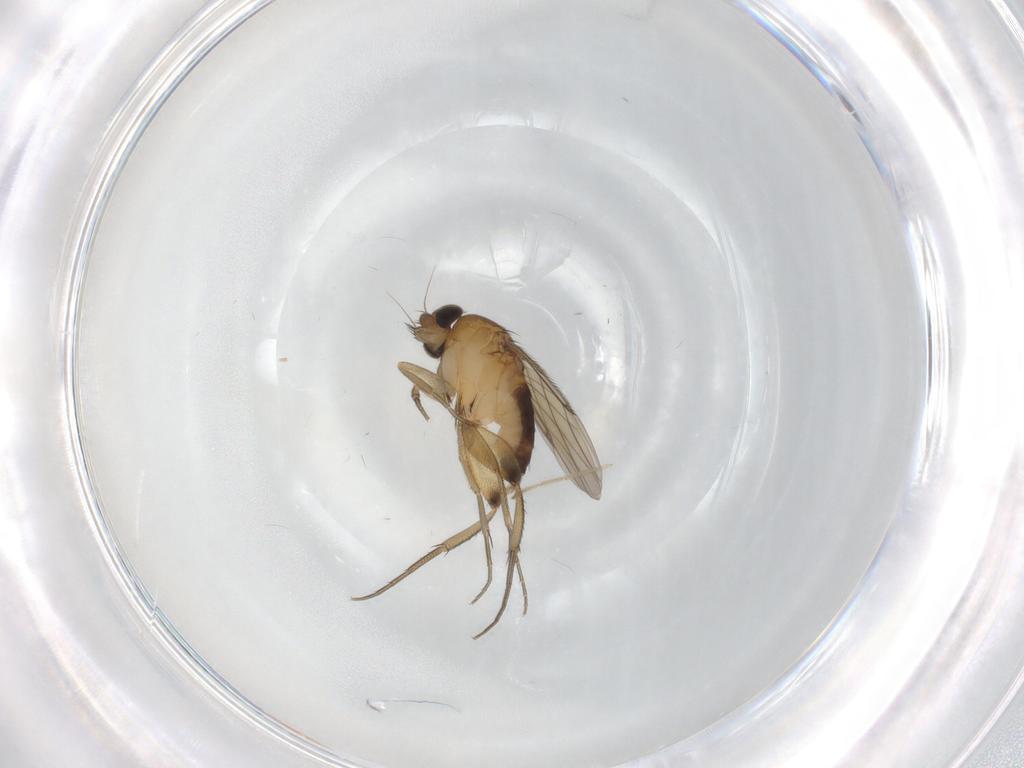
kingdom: Animalia
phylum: Arthropoda
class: Insecta
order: Diptera
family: Phoridae
